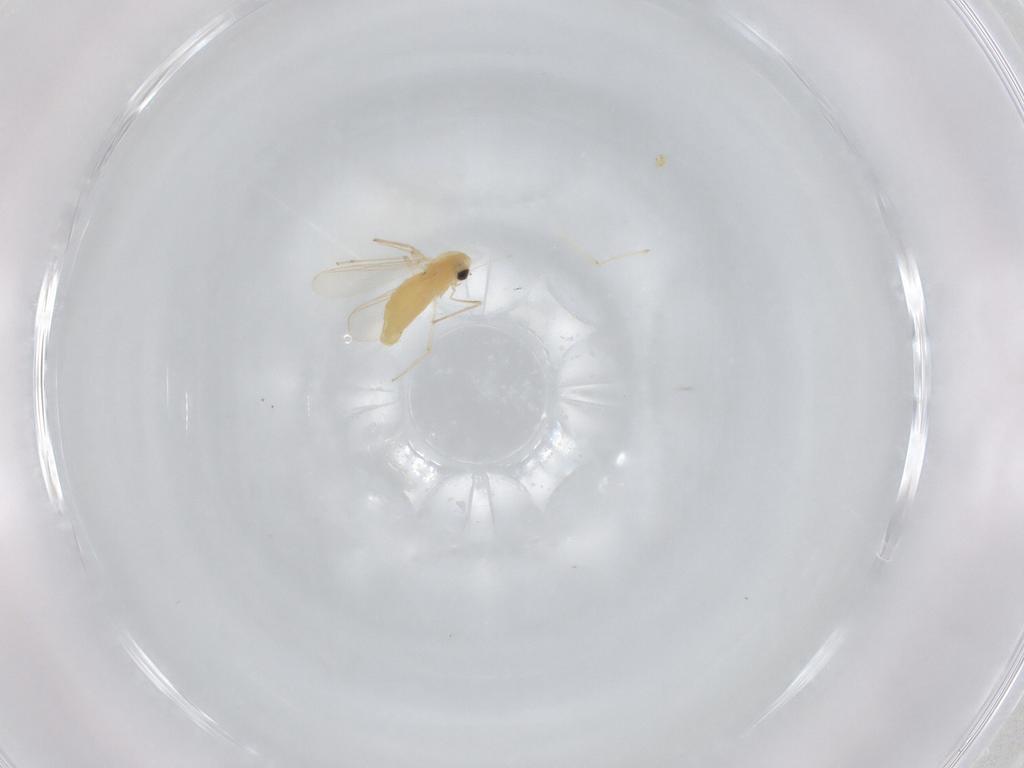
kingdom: Animalia
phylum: Arthropoda
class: Insecta
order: Diptera
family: Chironomidae
